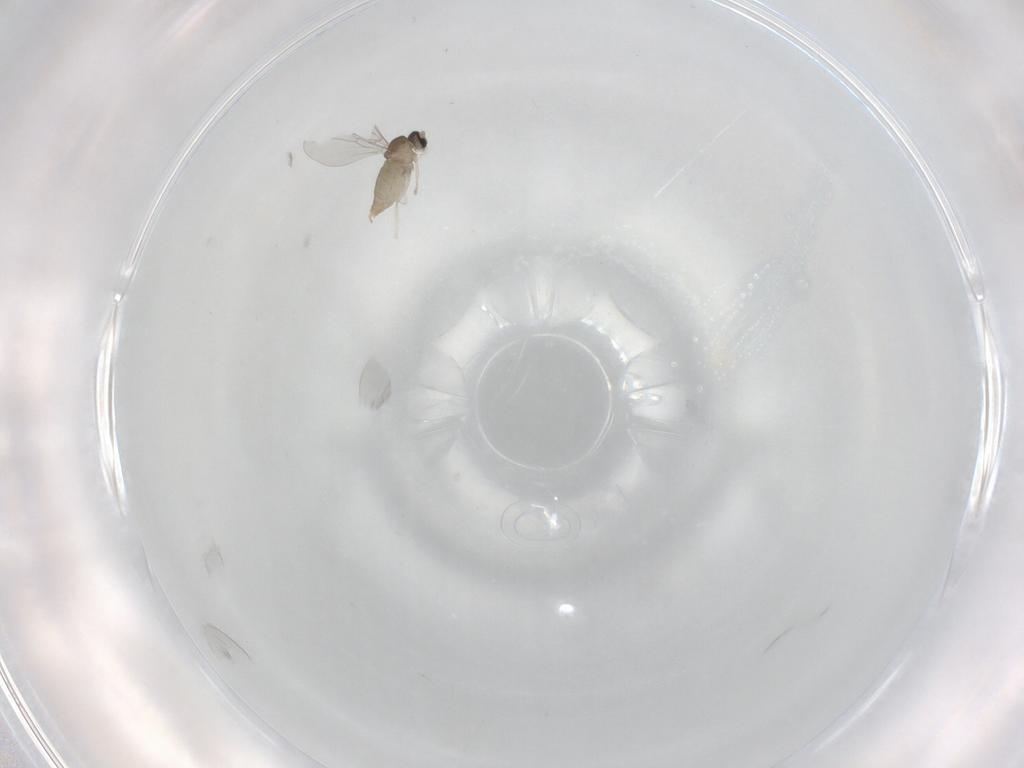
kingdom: Animalia
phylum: Arthropoda
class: Insecta
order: Diptera
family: Cecidomyiidae
